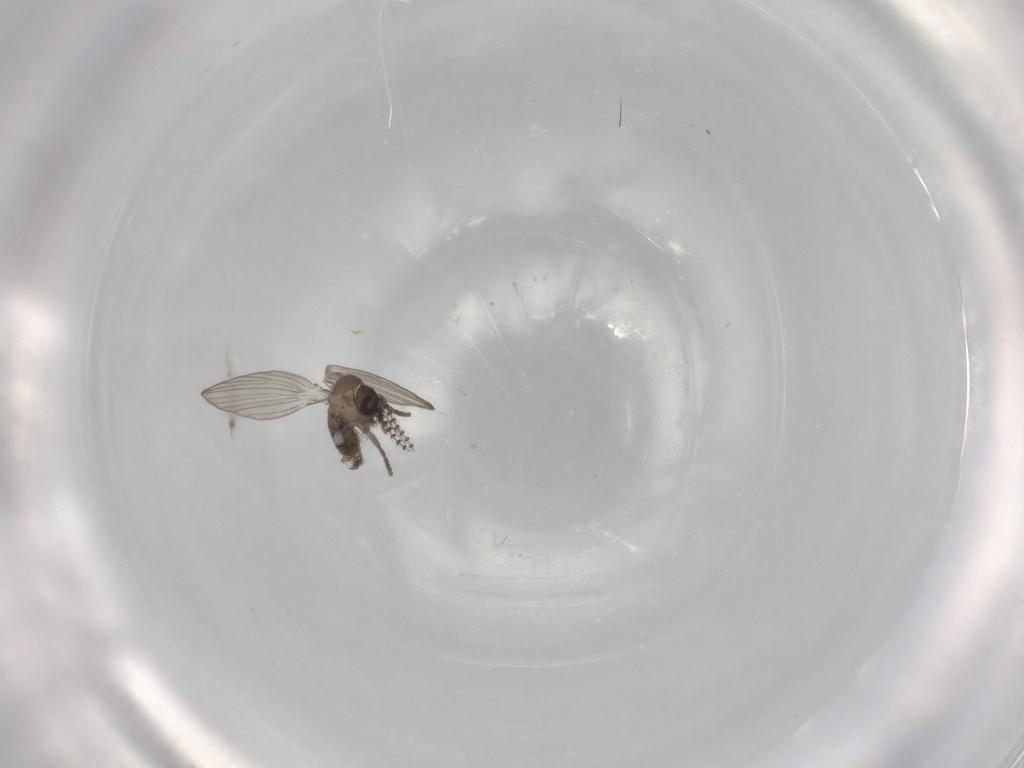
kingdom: Animalia
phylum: Arthropoda
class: Insecta
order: Diptera
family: Psychodidae
